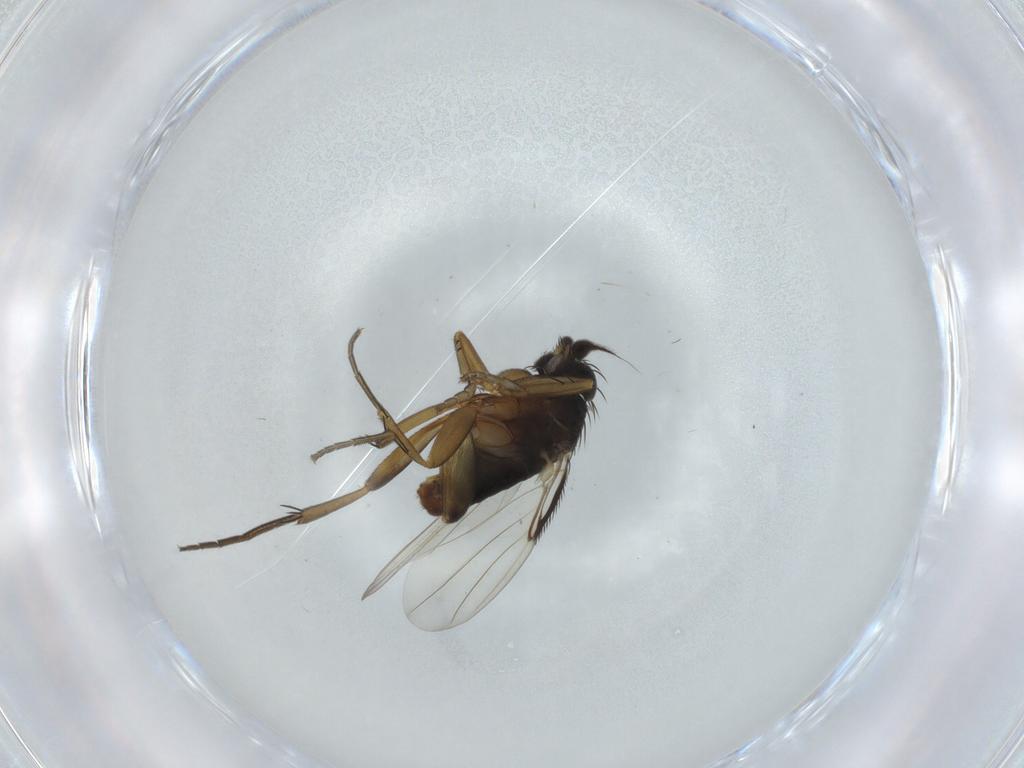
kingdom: Animalia
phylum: Arthropoda
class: Insecta
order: Diptera
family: Phoridae
